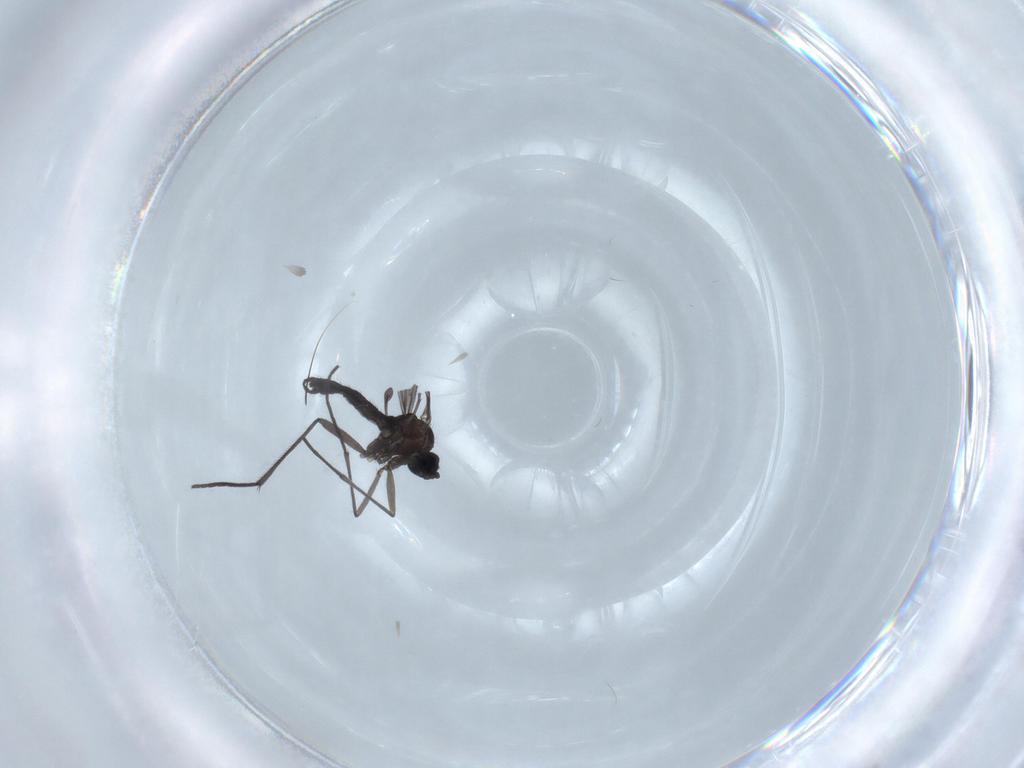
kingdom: Animalia
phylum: Arthropoda
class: Insecta
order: Diptera
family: Sciaridae
